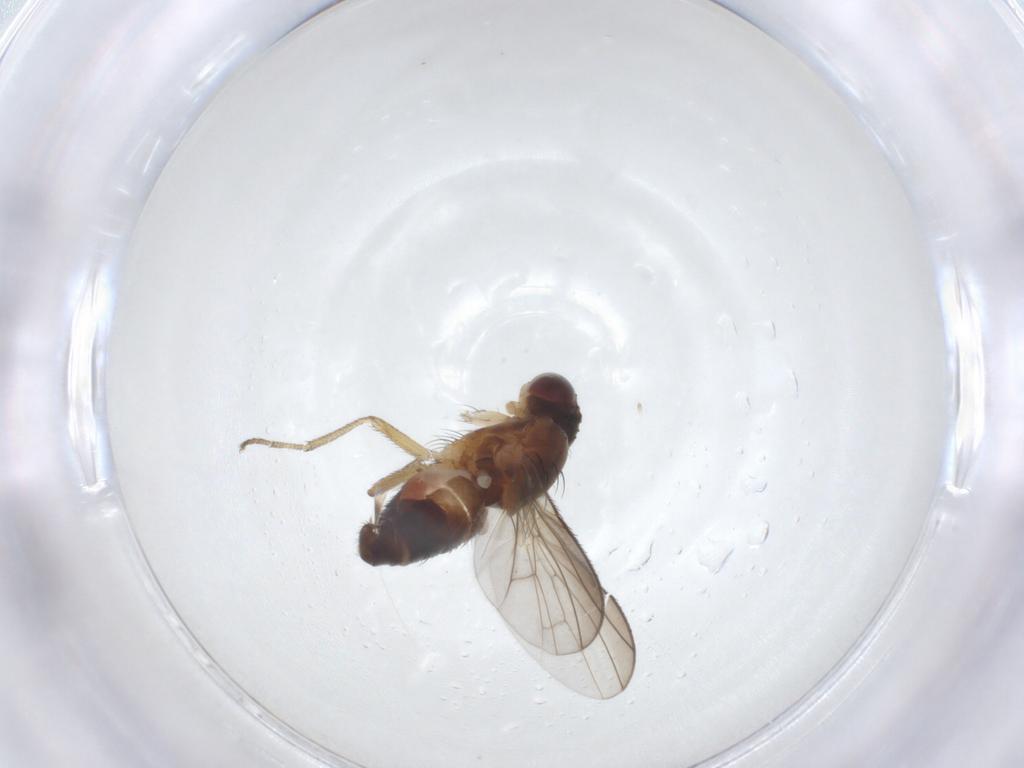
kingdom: Animalia
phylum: Arthropoda
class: Insecta
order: Diptera
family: Heleomyzidae
